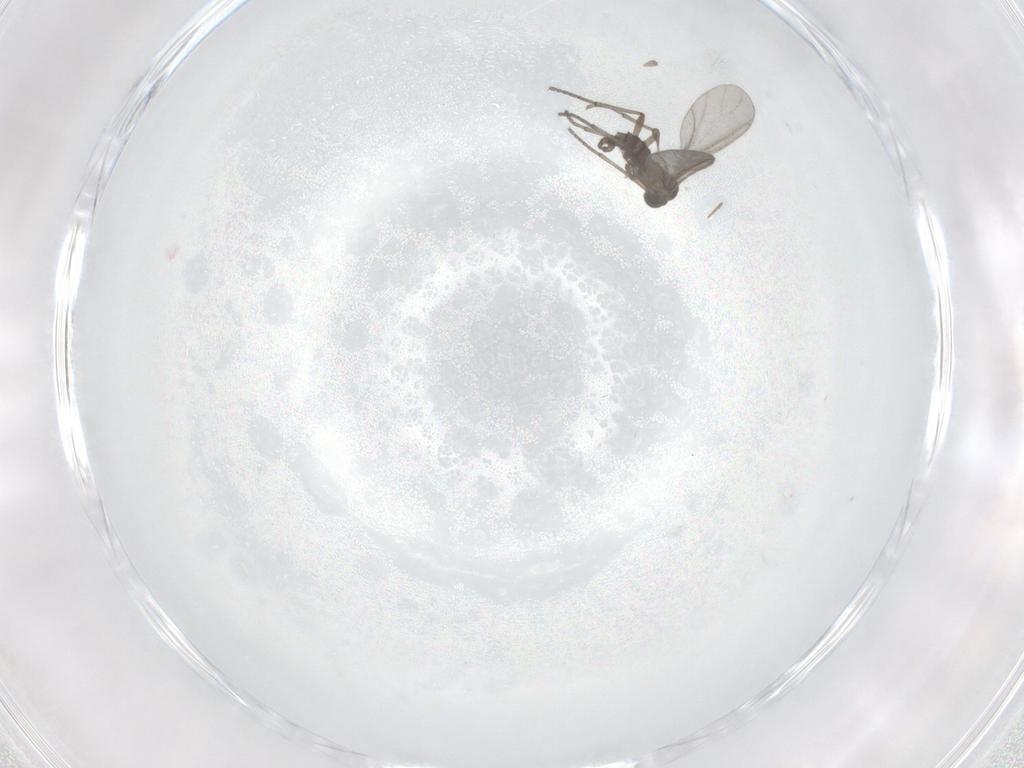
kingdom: Animalia
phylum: Arthropoda
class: Insecta
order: Diptera
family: Sciaridae
